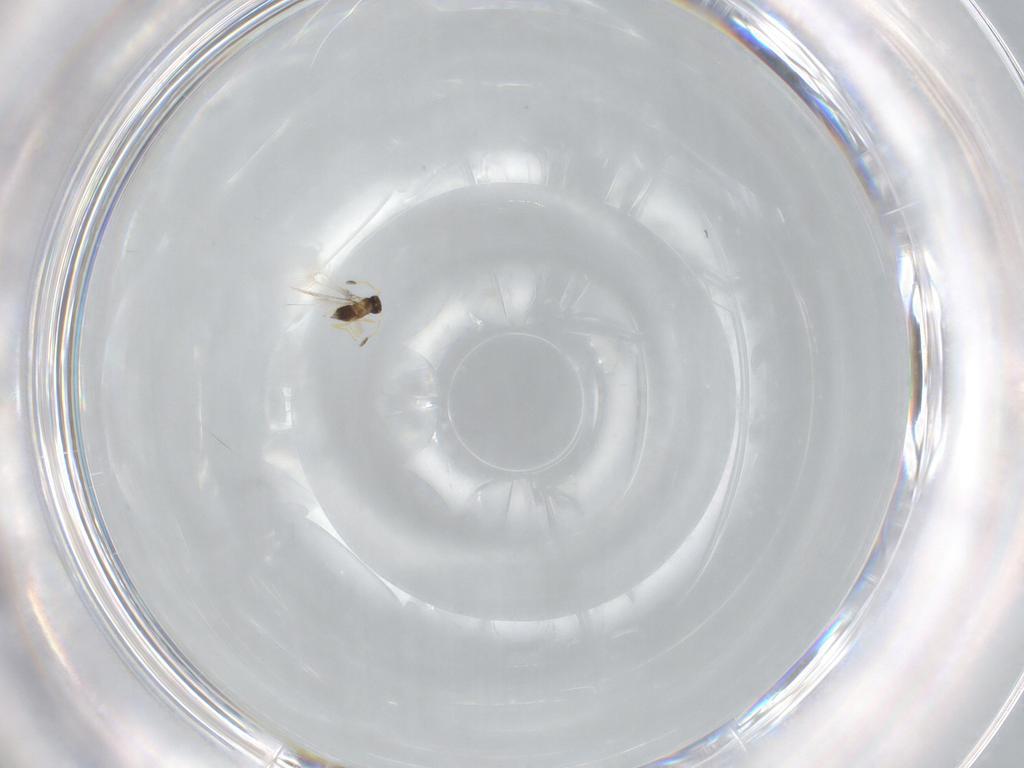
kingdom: Animalia
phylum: Arthropoda
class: Insecta
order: Hymenoptera
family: Mymaridae
